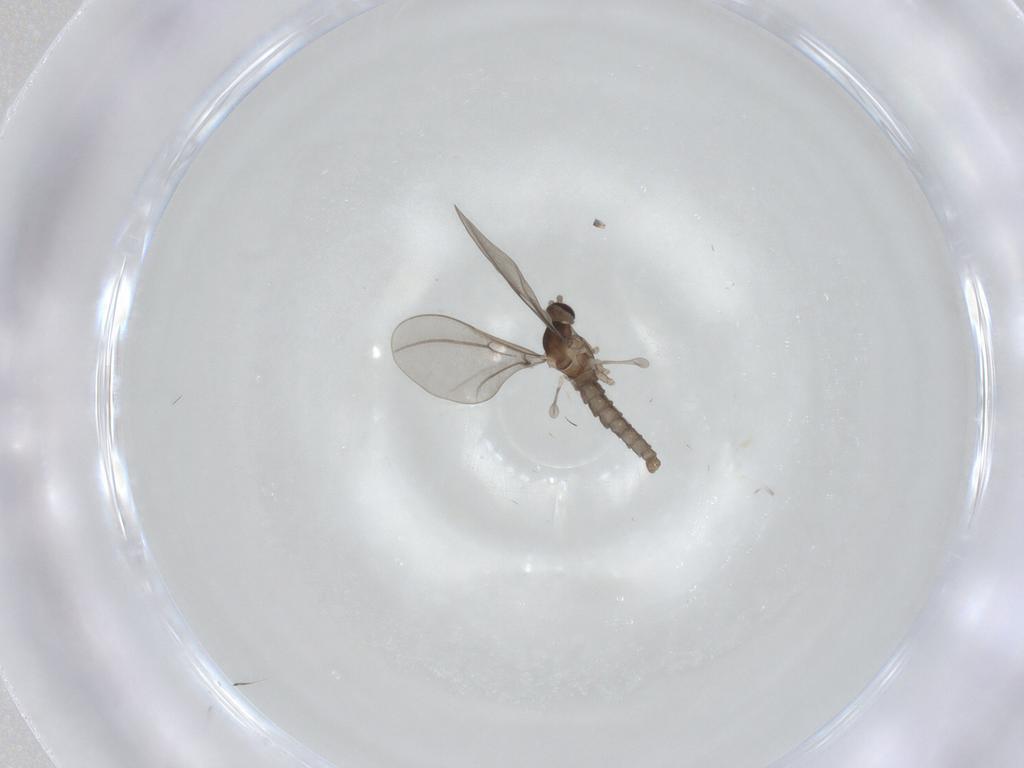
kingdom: Animalia
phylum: Arthropoda
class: Insecta
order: Diptera
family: Cecidomyiidae
